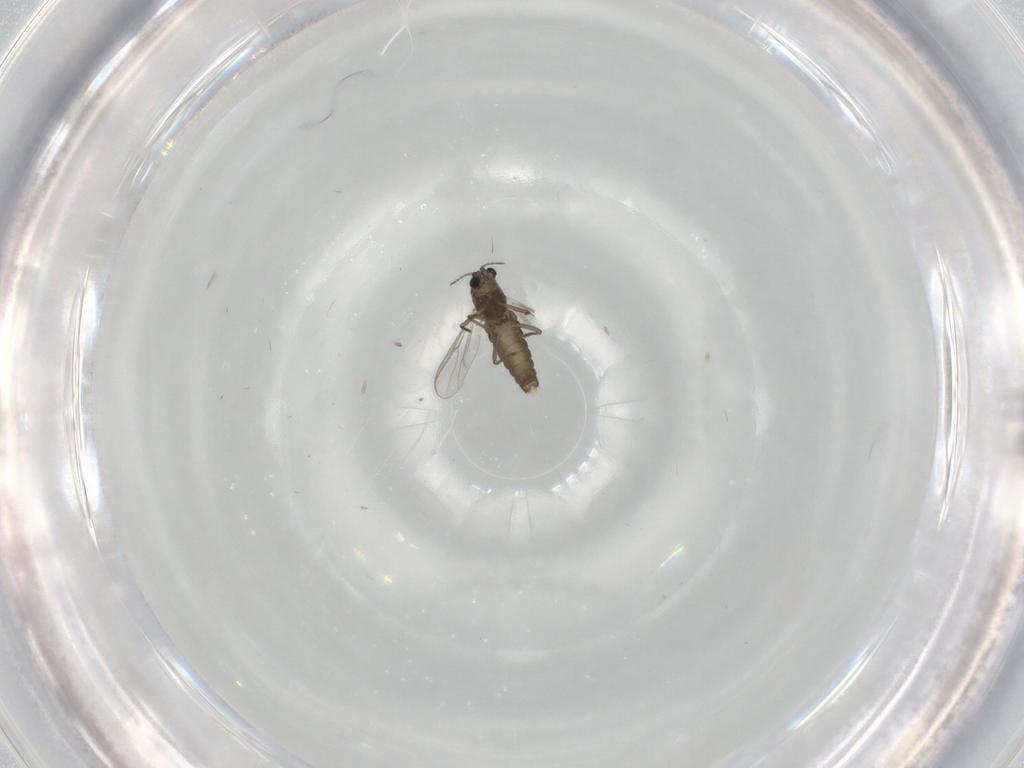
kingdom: Animalia
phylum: Arthropoda
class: Insecta
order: Diptera
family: Chironomidae
